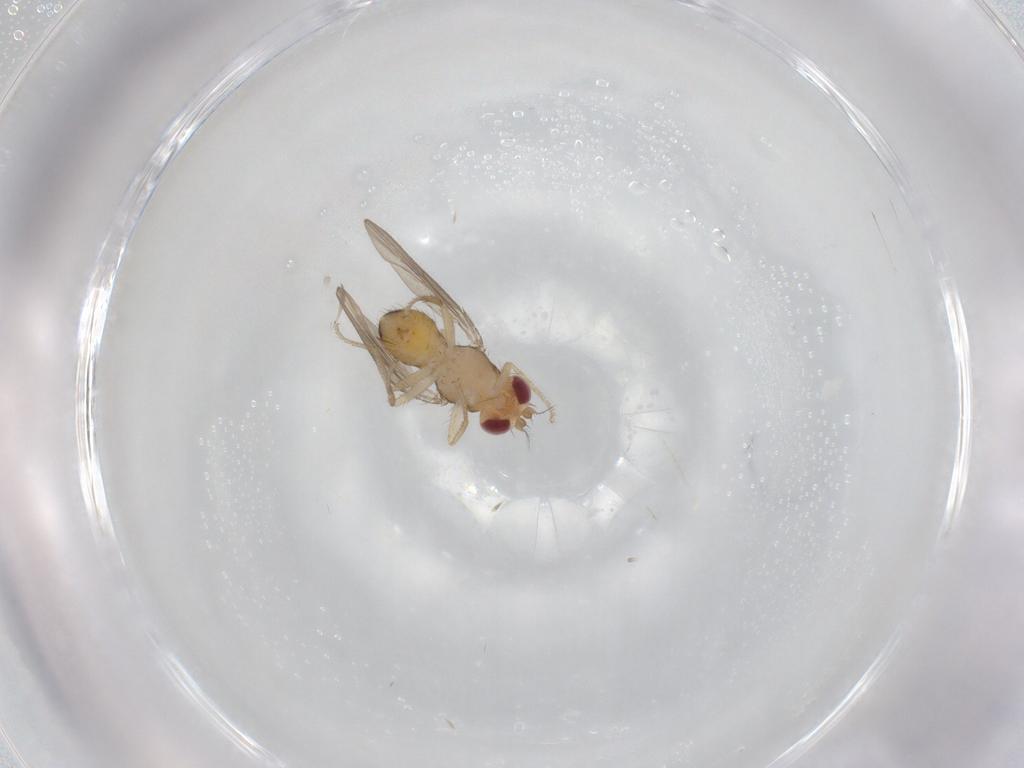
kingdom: Animalia
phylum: Arthropoda
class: Insecta
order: Diptera
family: Drosophilidae
